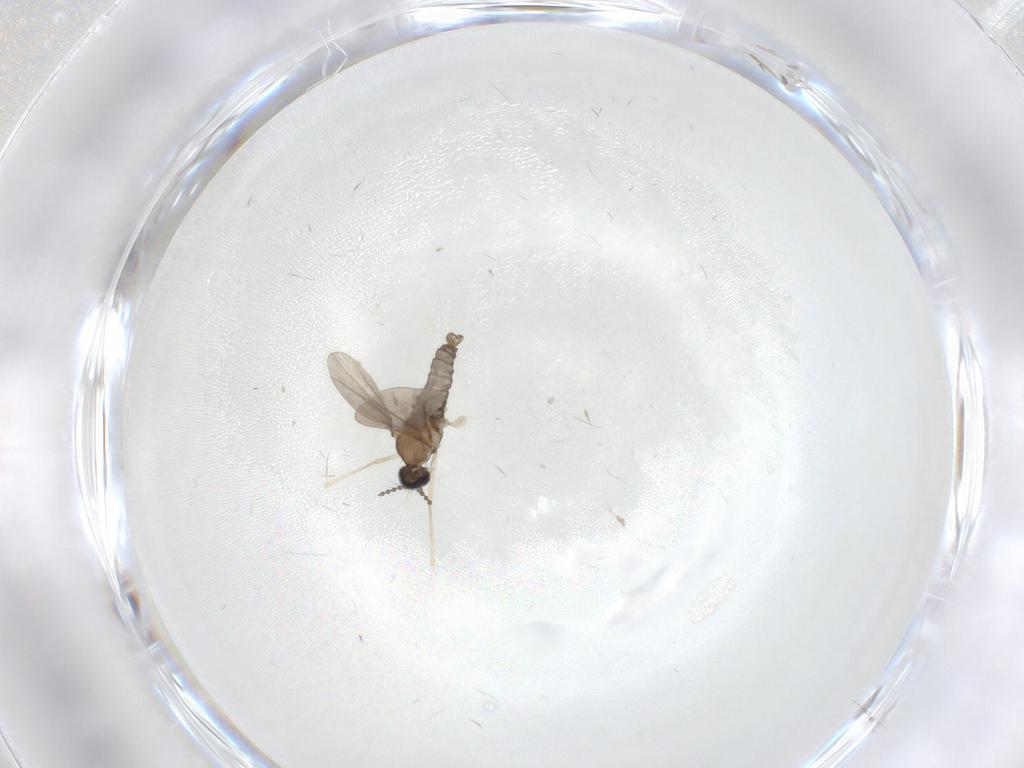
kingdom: Animalia
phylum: Arthropoda
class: Insecta
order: Diptera
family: Cecidomyiidae
